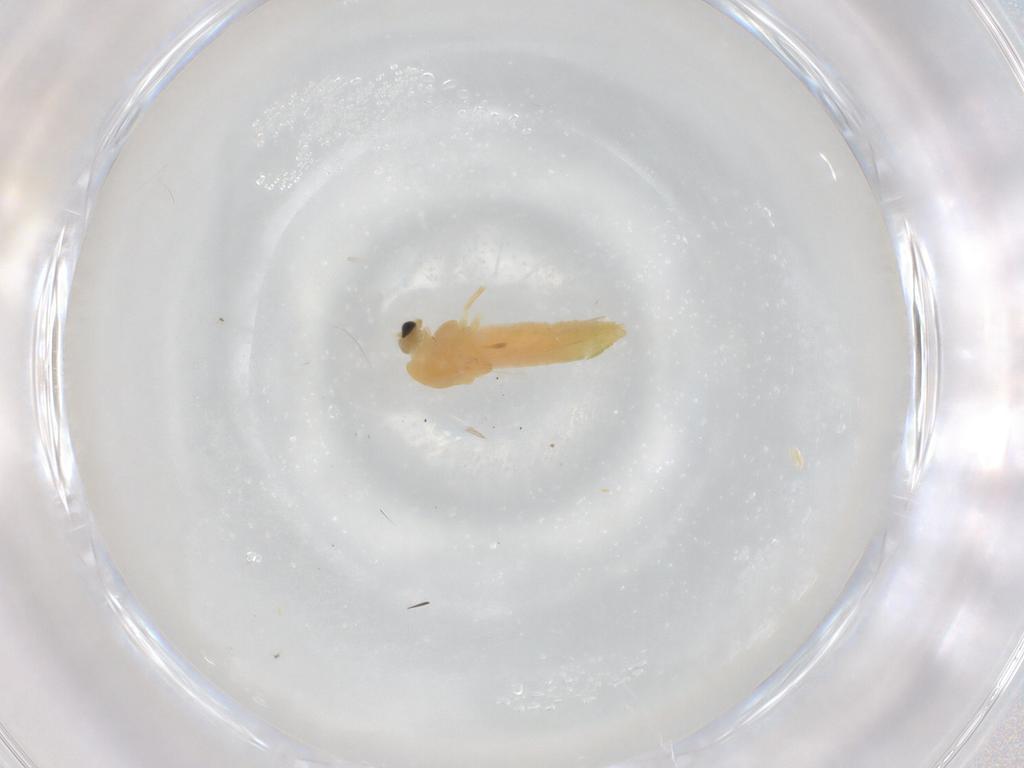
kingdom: Animalia
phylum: Arthropoda
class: Insecta
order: Diptera
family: Chironomidae
